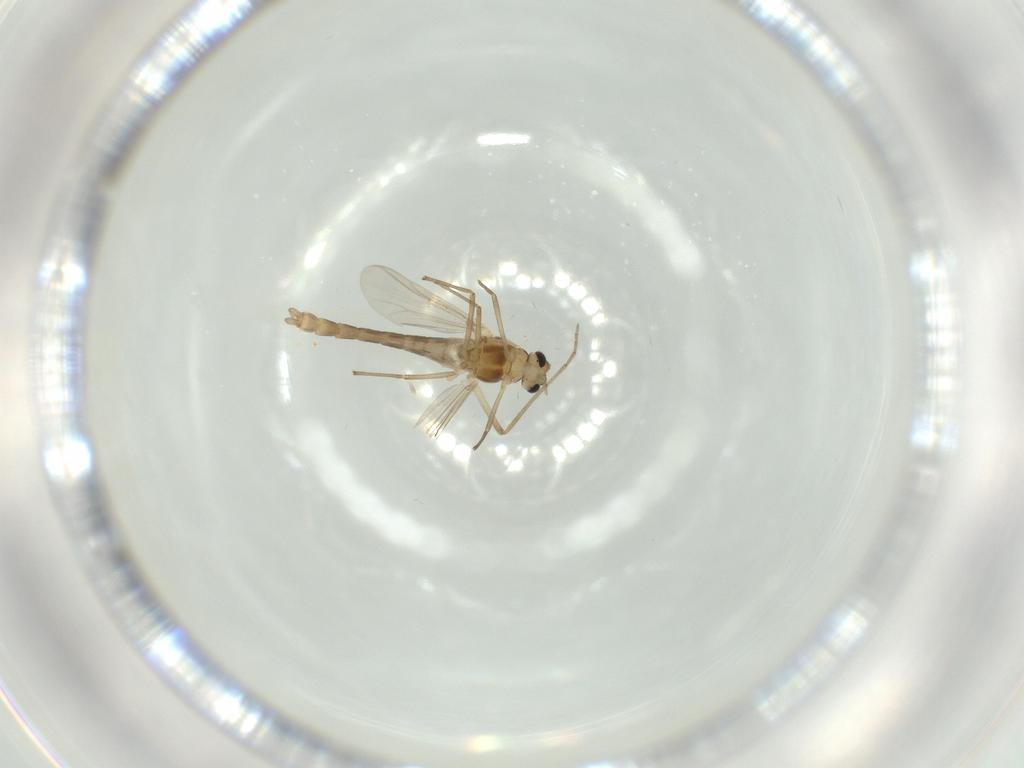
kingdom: Animalia
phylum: Arthropoda
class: Insecta
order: Diptera
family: Chironomidae
